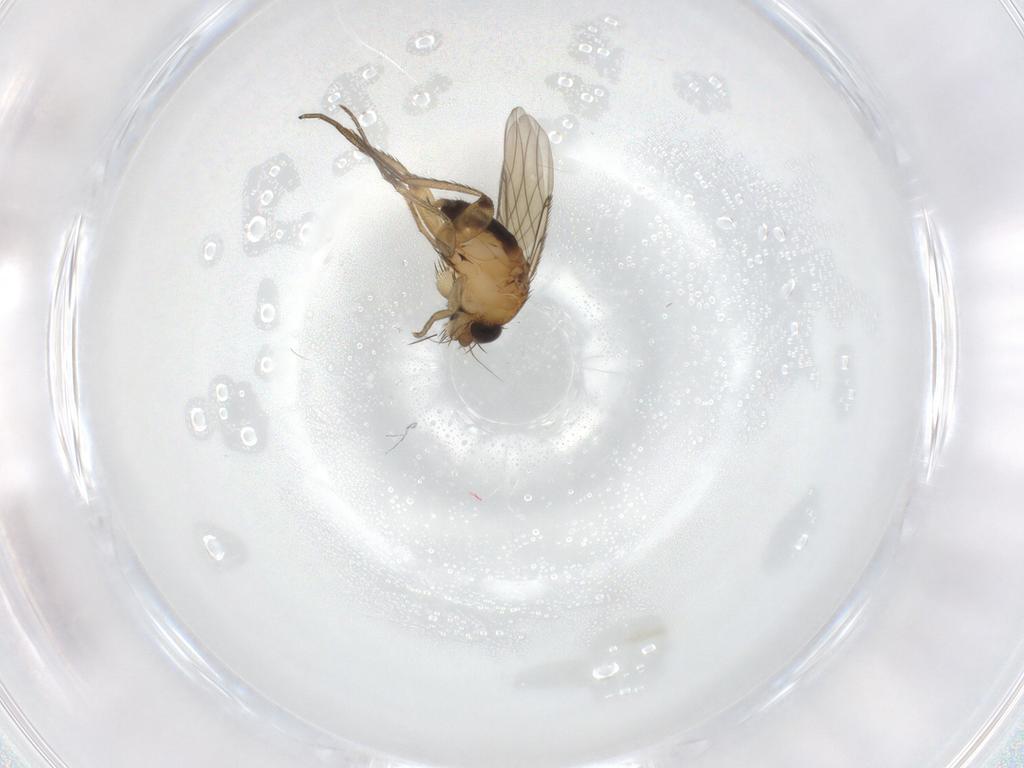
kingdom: Animalia
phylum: Arthropoda
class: Insecta
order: Diptera
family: Phoridae
